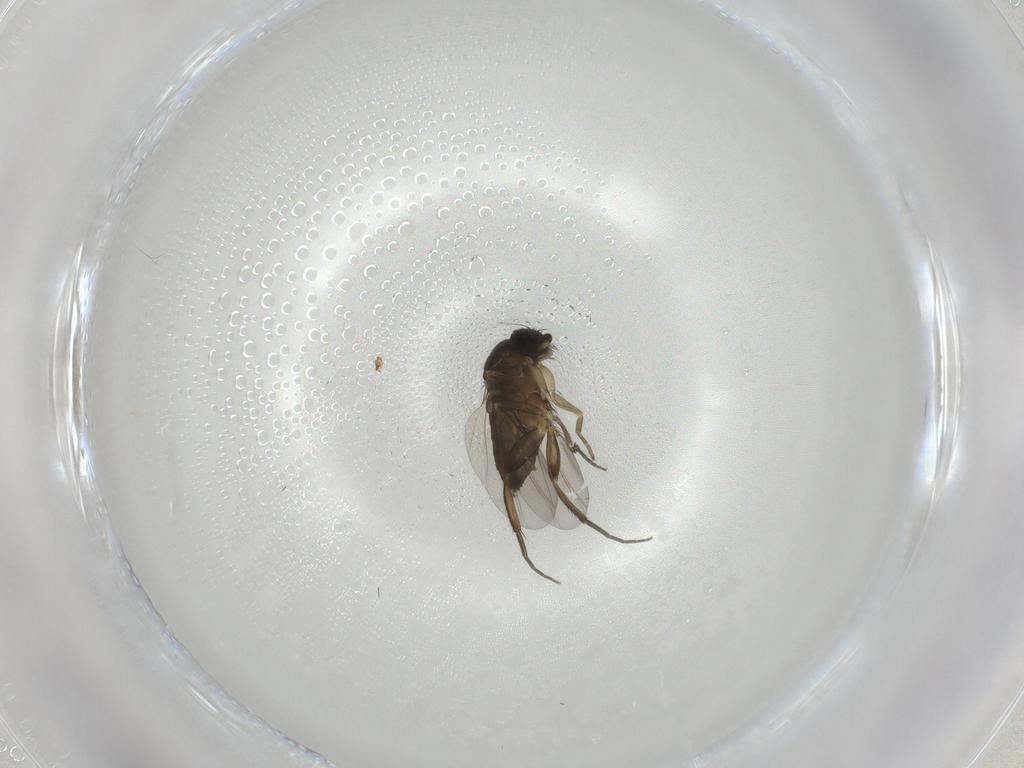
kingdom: Animalia
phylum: Arthropoda
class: Insecta
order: Diptera
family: Phoridae
